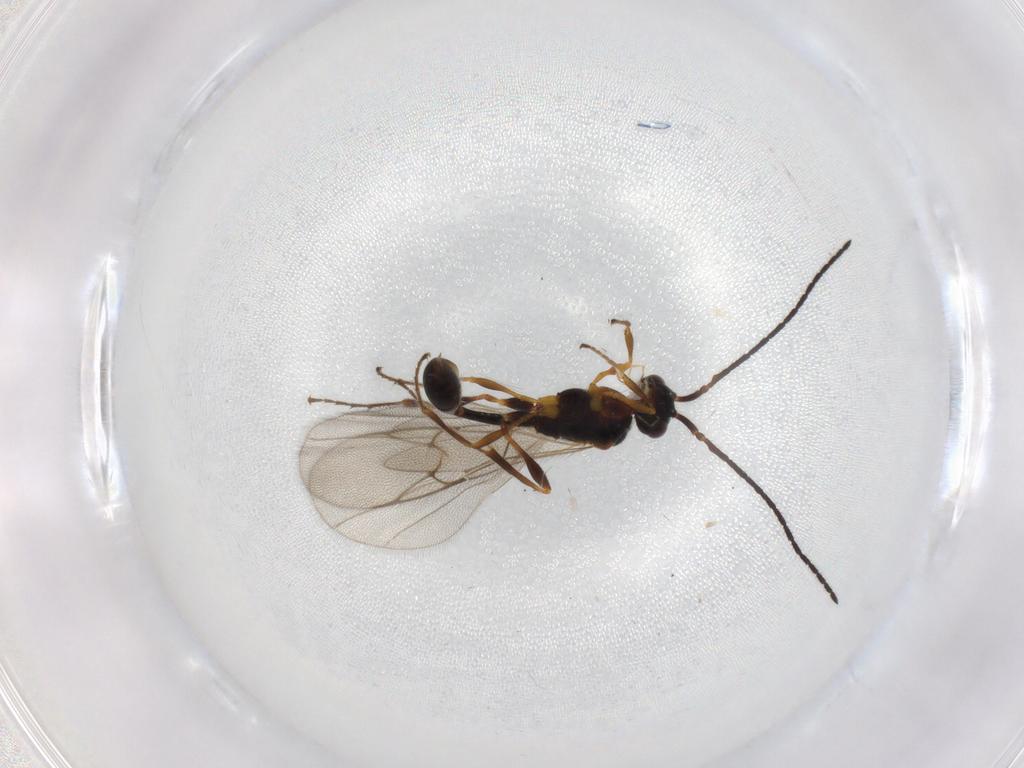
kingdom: Animalia
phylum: Arthropoda
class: Insecta
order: Hymenoptera
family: Diapriidae
